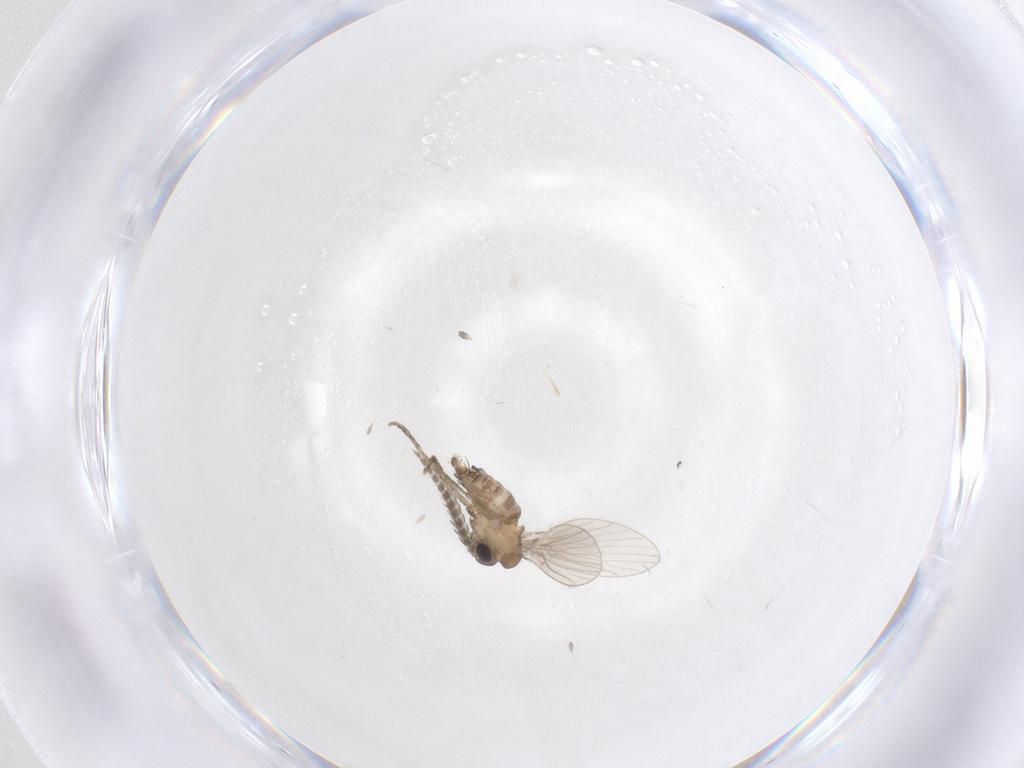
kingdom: Animalia
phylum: Arthropoda
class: Insecta
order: Diptera
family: Psychodidae
